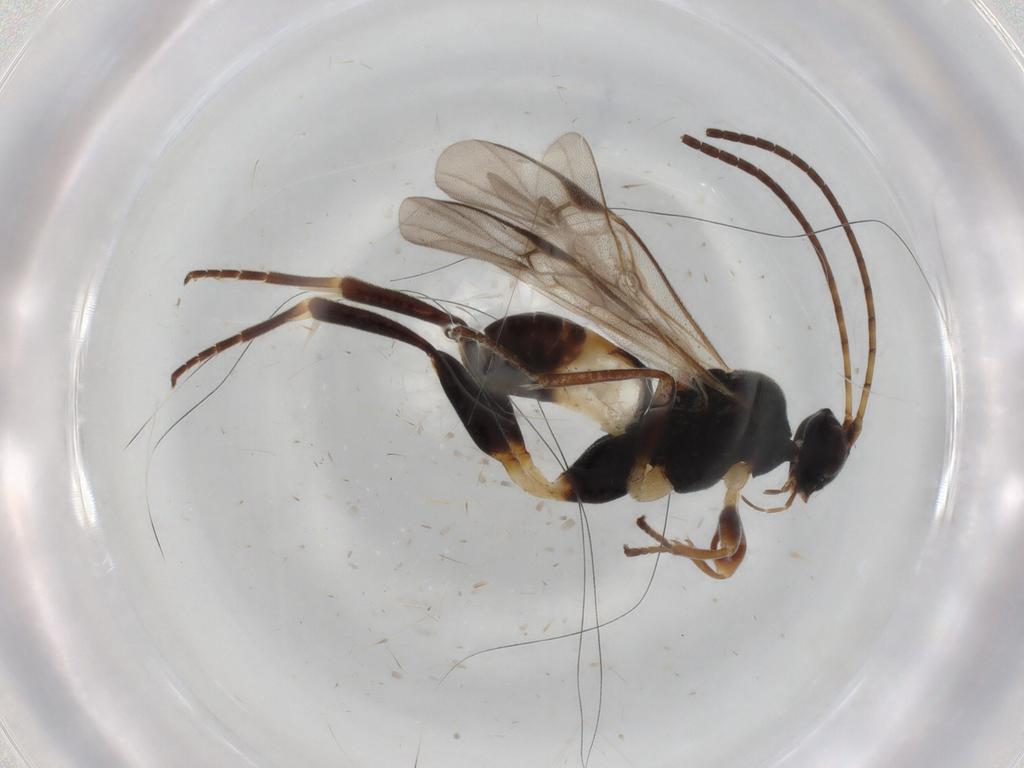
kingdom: Animalia
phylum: Arthropoda
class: Insecta
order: Hymenoptera
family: Braconidae
